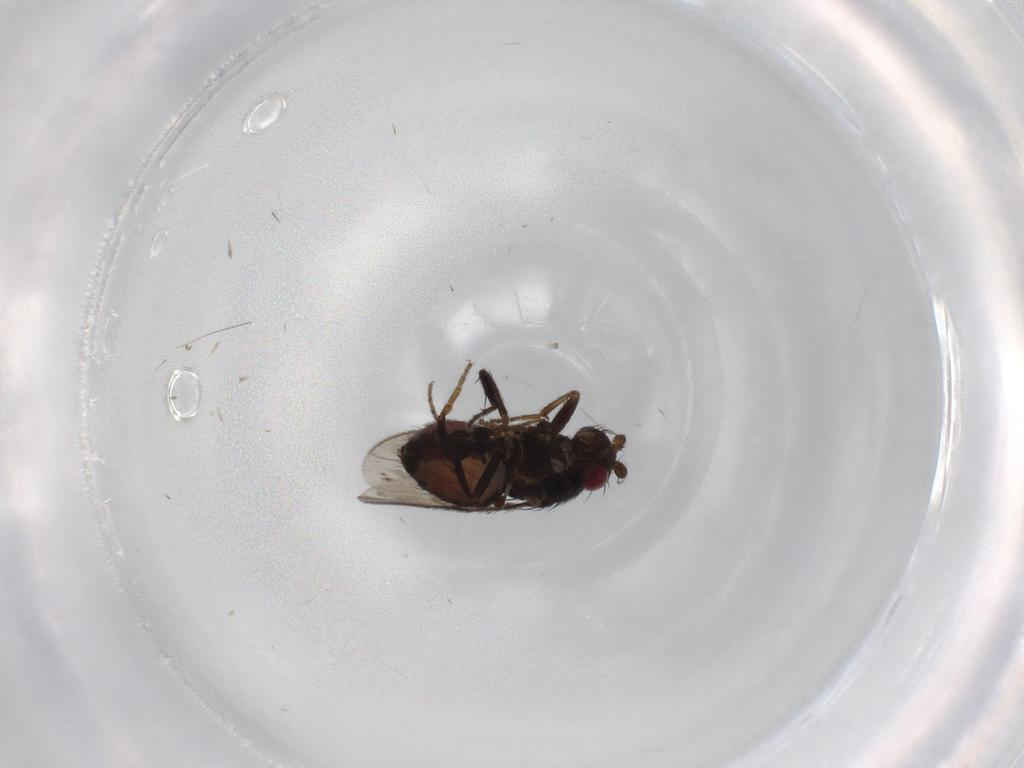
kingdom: Animalia
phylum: Arthropoda
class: Insecta
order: Diptera
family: Sphaeroceridae
